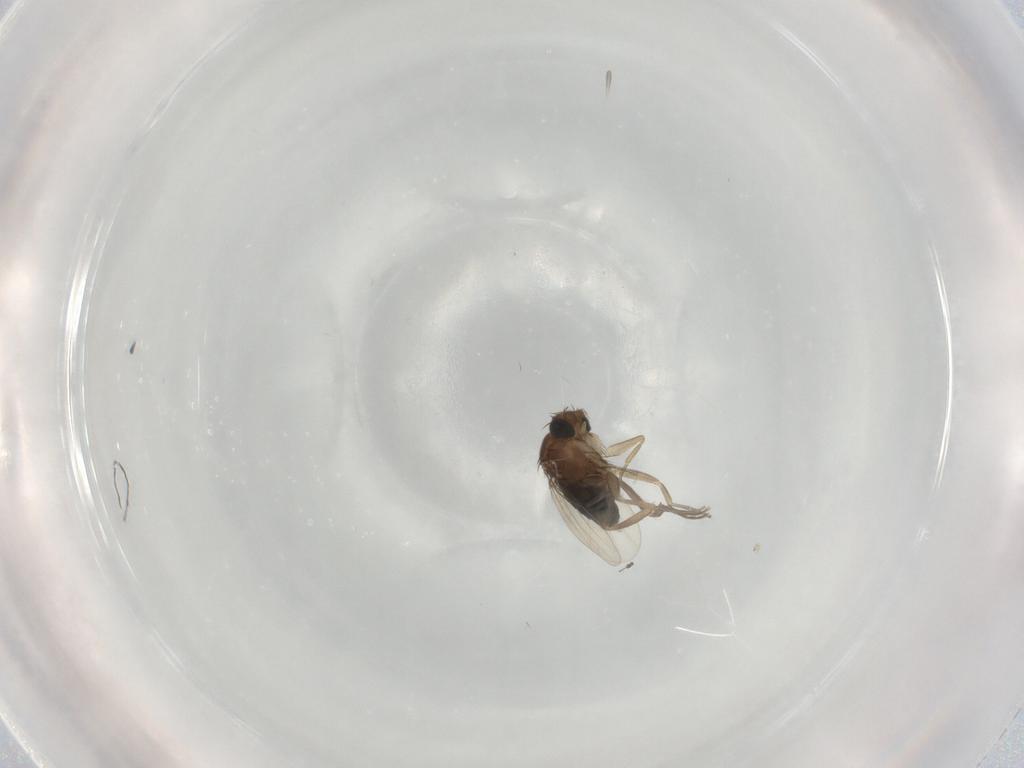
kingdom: Animalia
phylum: Arthropoda
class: Insecta
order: Diptera
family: Phoridae
